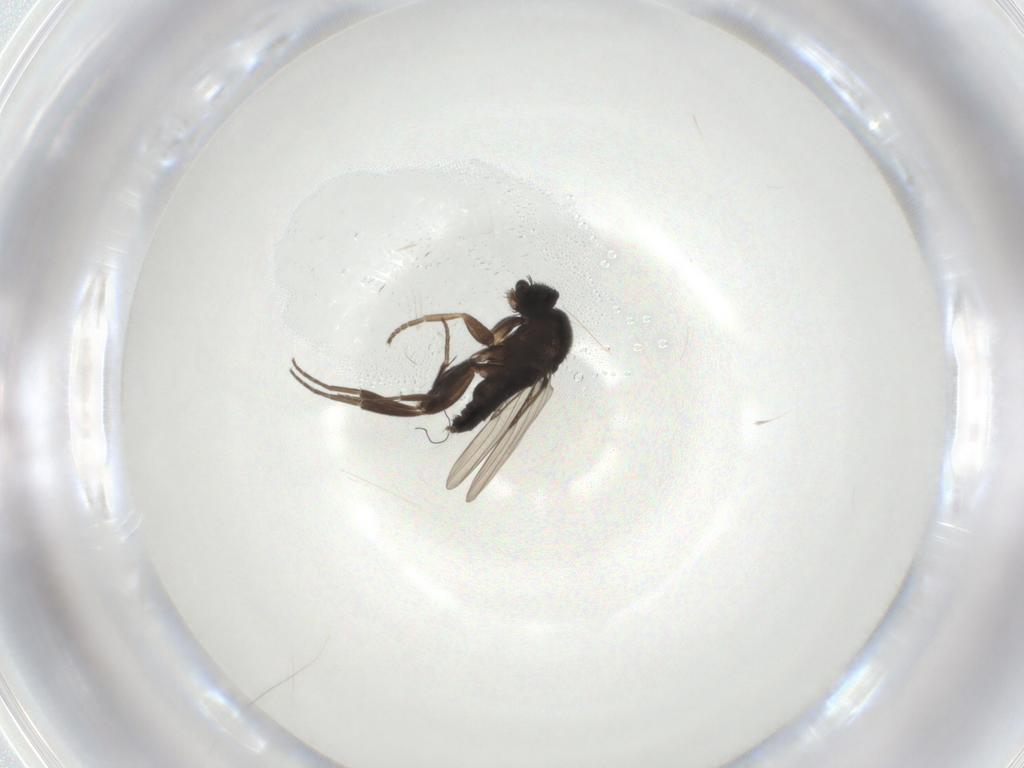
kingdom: Animalia
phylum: Arthropoda
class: Insecta
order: Diptera
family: Phoridae
